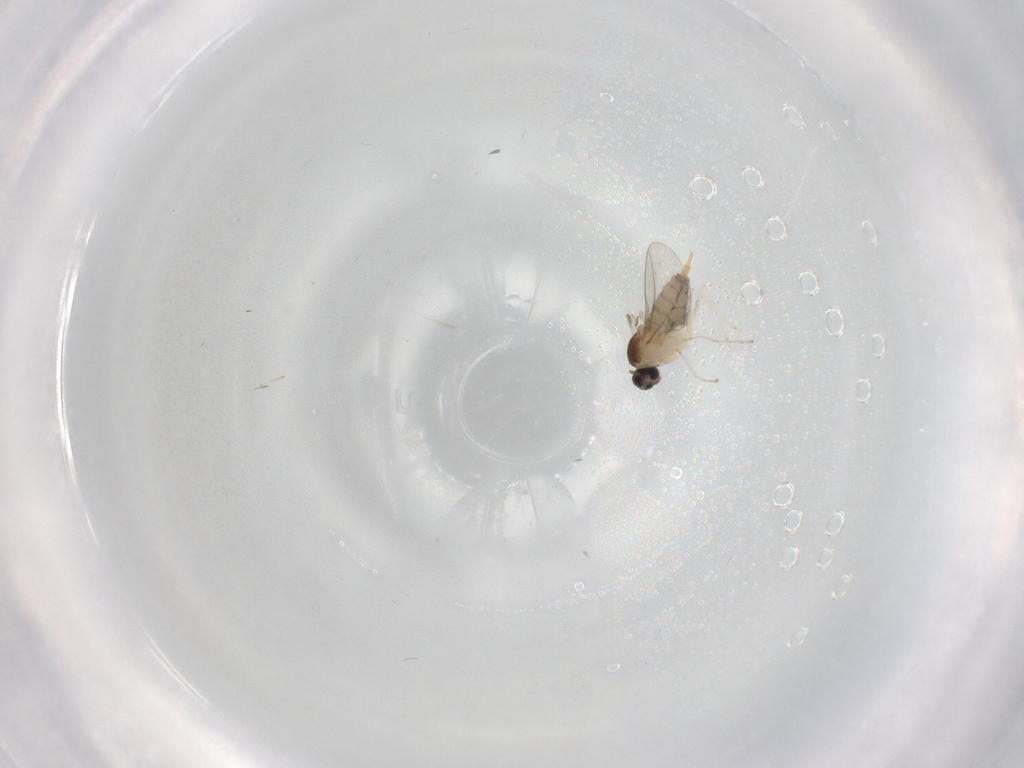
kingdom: Animalia
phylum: Arthropoda
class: Insecta
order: Diptera
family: Cecidomyiidae
